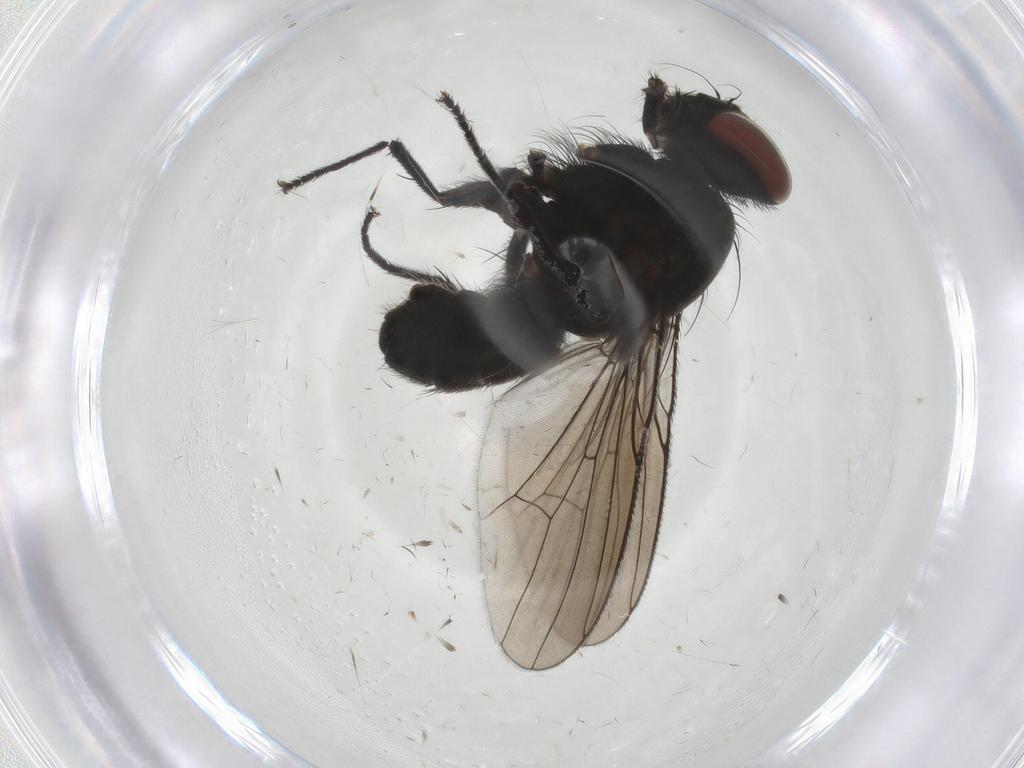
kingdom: Animalia
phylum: Arthropoda
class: Insecta
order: Diptera
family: Muscidae
